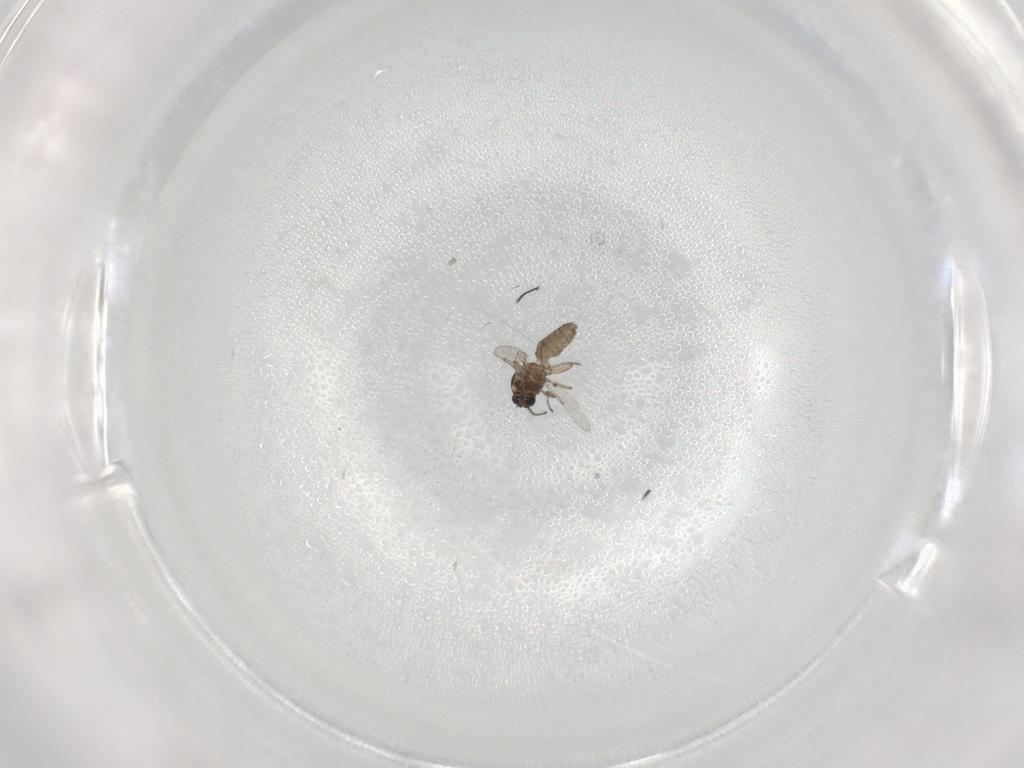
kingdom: Animalia
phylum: Arthropoda
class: Insecta
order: Diptera
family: Ceratopogonidae
